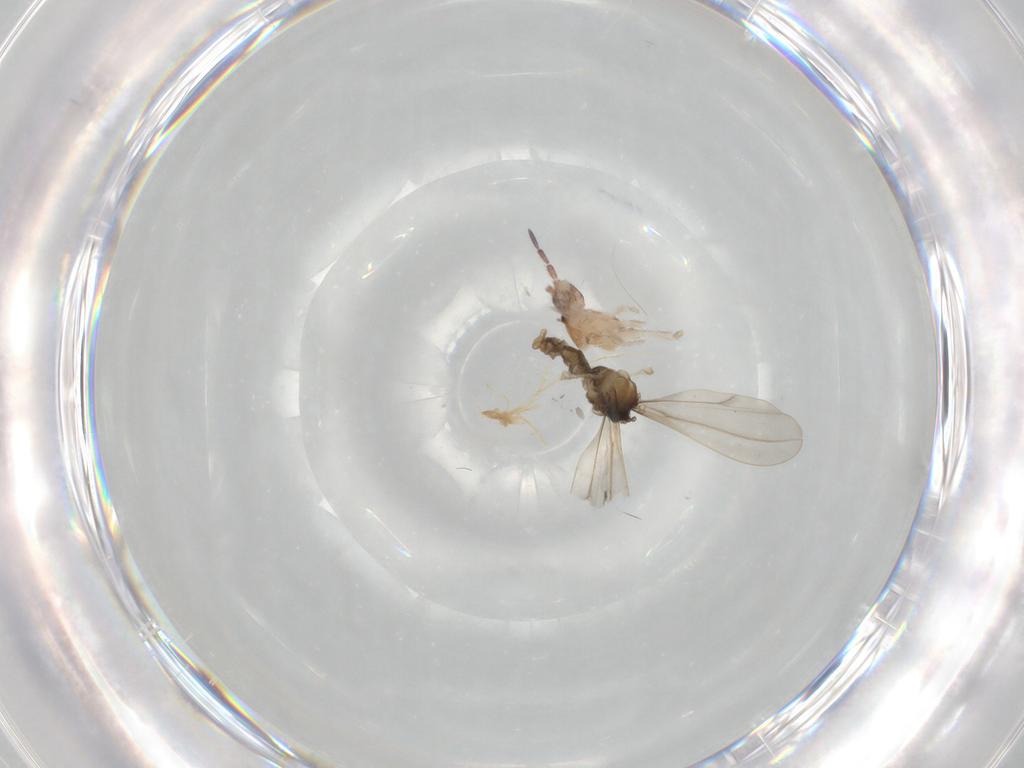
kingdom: Animalia
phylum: Arthropoda
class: Insecta
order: Diptera
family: Cecidomyiidae
